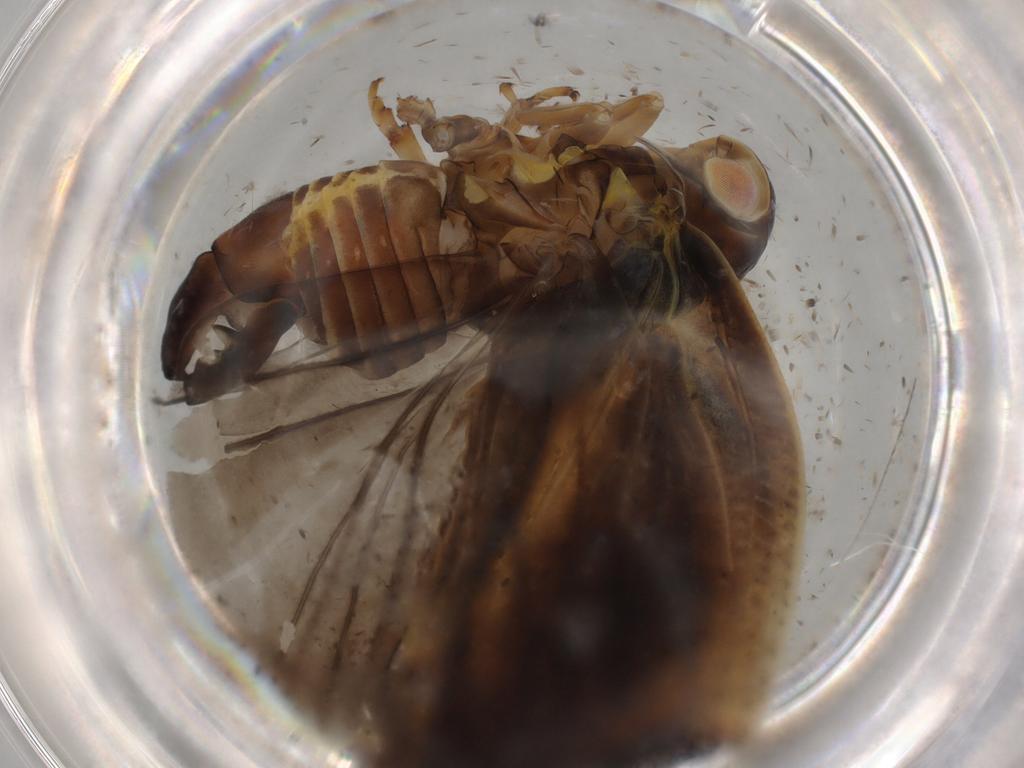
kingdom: Animalia
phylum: Arthropoda
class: Insecta
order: Hemiptera
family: Flatidae
